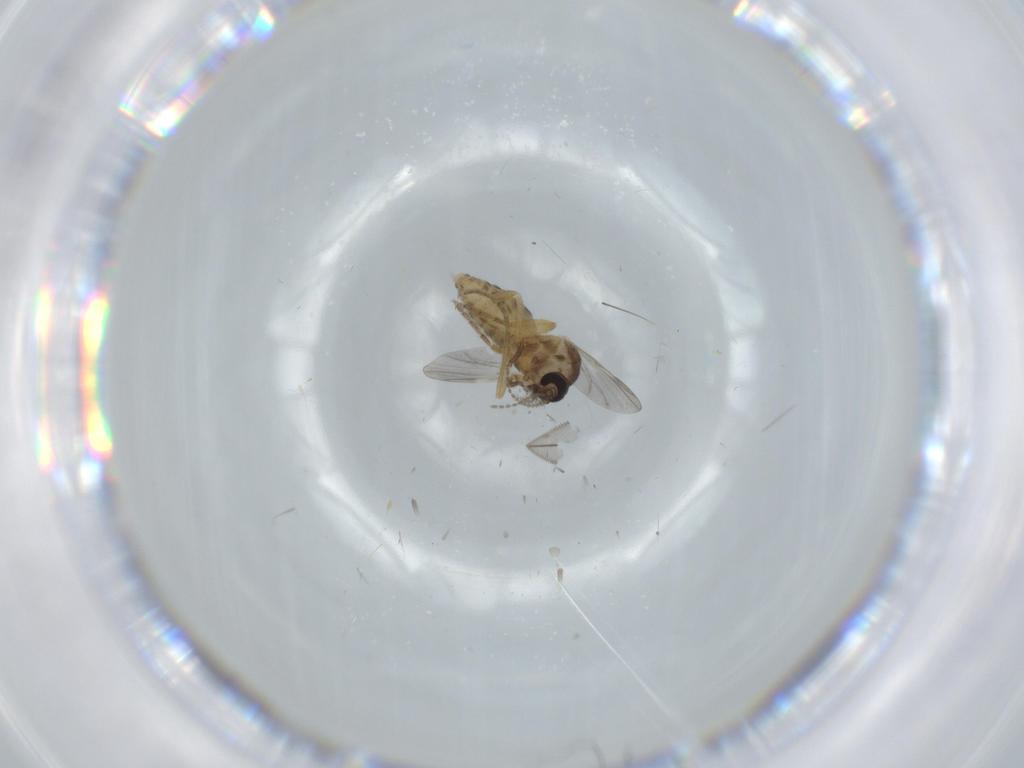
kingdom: Animalia
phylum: Arthropoda
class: Insecta
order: Diptera
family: Ceratopogonidae
